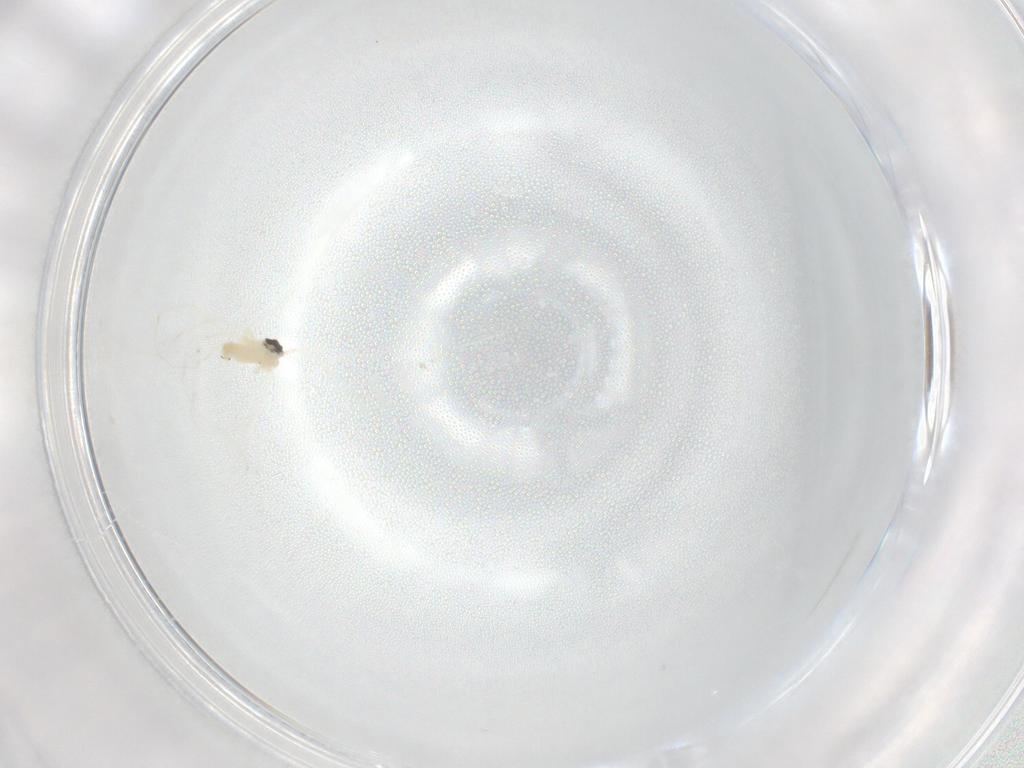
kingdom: Animalia
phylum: Arthropoda
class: Insecta
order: Diptera
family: Cecidomyiidae
